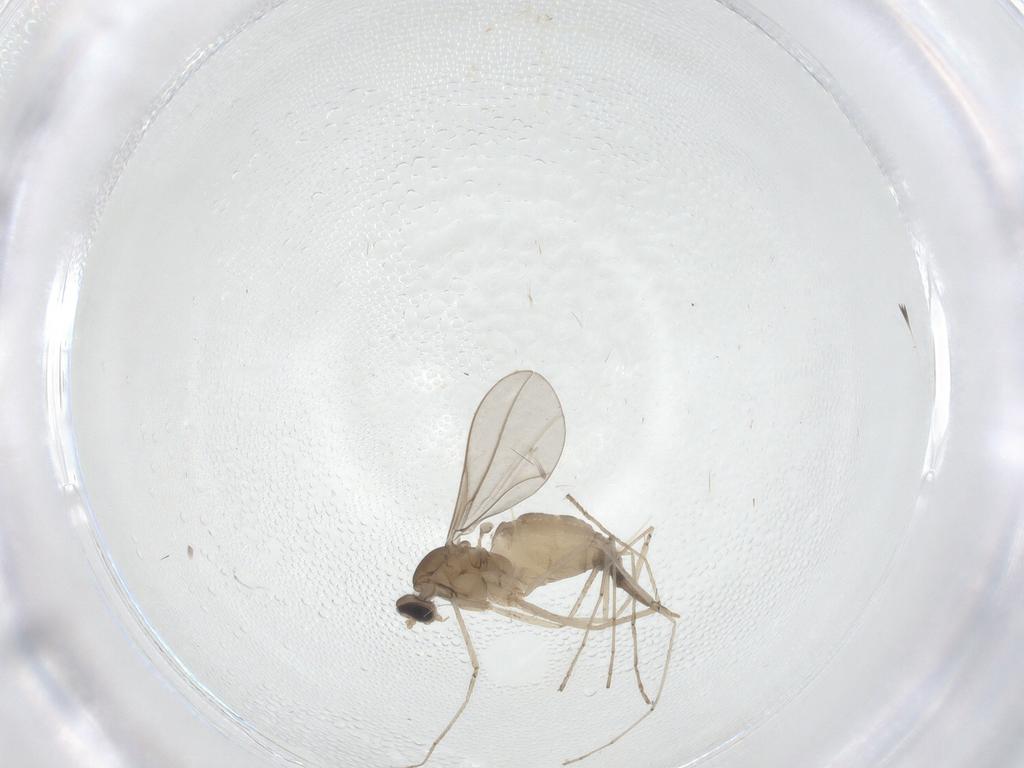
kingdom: Animalia
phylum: Arthropoda
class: Insecta
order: Diptera
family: Cecidomyiidae
